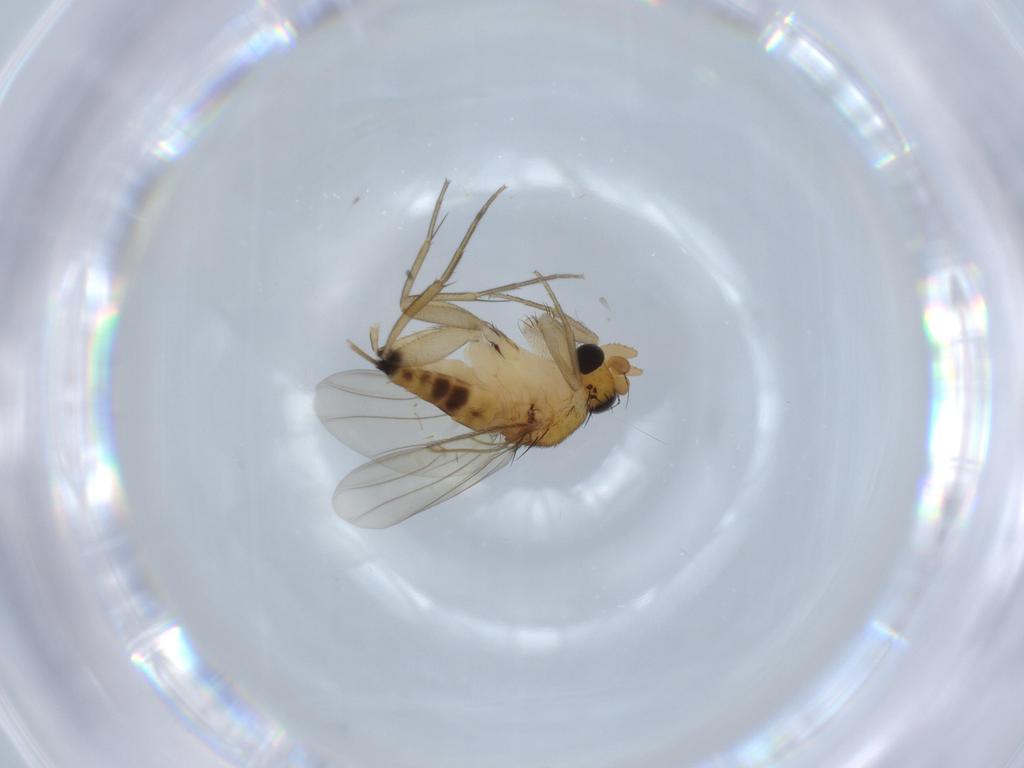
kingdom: Animalia
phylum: Arthropoda
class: Insecta
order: Diptera
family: Phoridae
